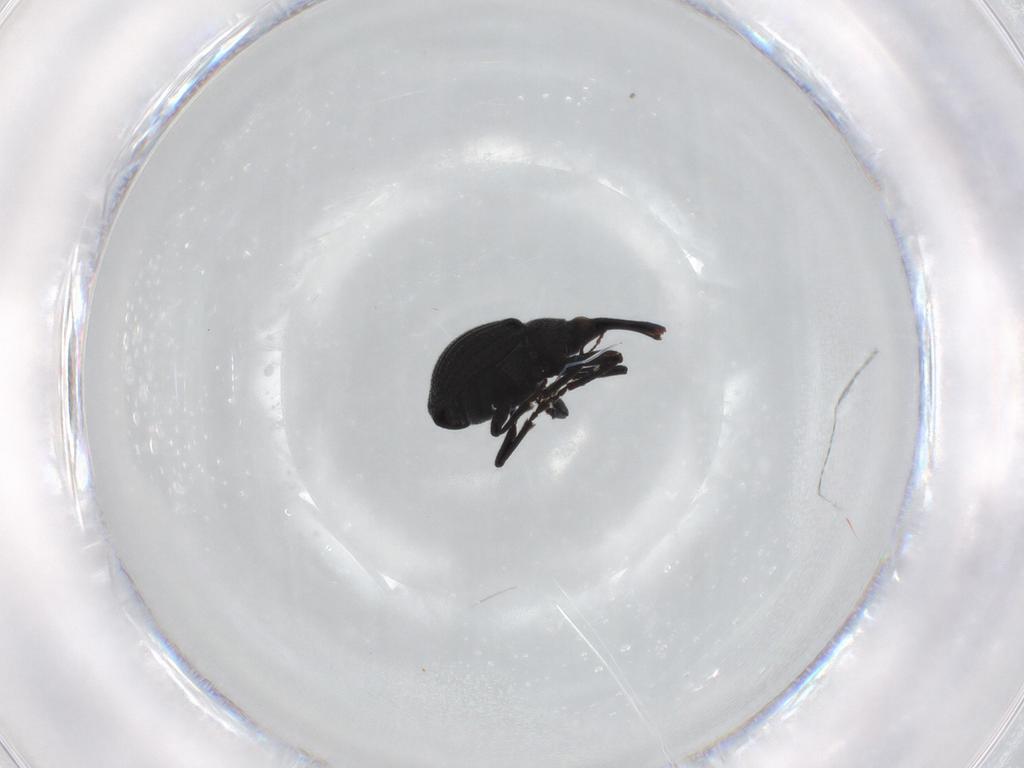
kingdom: Animalia
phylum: Arthropoda
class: Insecta
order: Coleoptera
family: Brentidae
